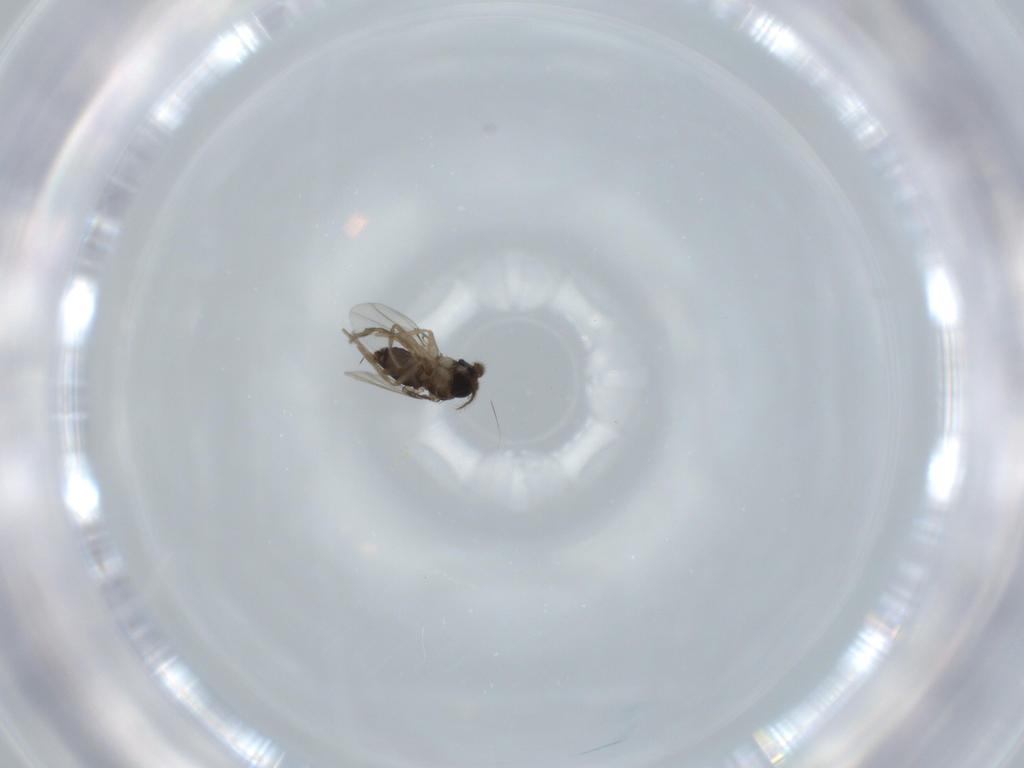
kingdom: Animalia
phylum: Arthropoda
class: Insecta
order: Diptera
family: Phoridae
